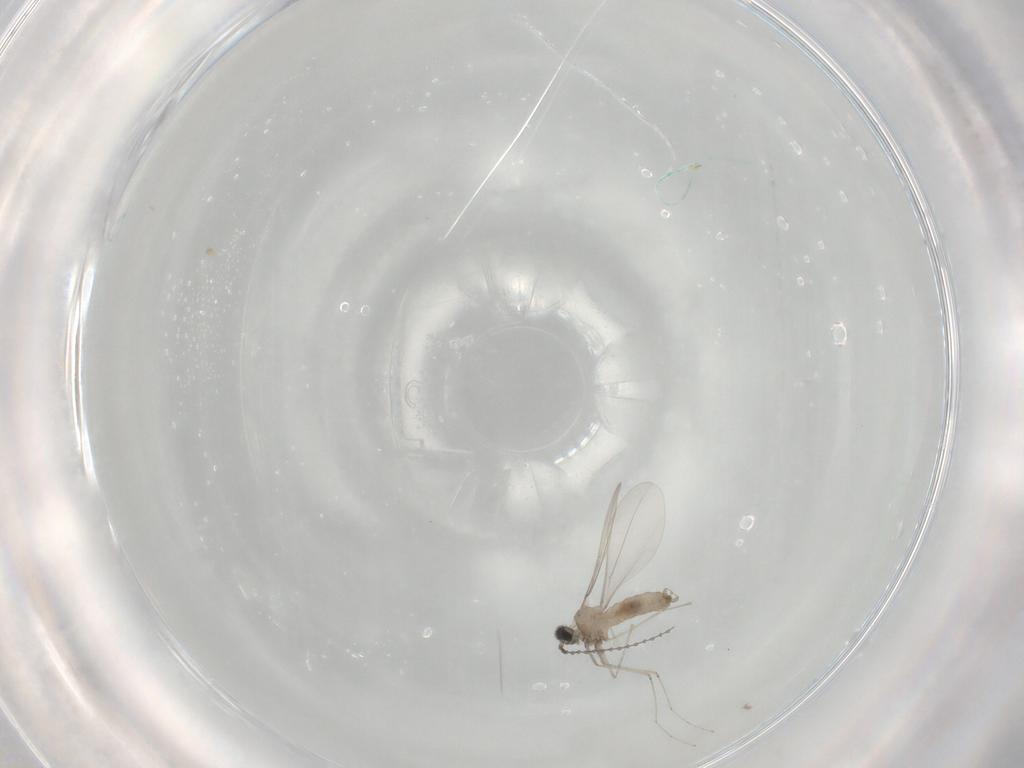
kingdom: Animalia
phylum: Arthropoda
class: Insecta
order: Diptera
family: Cecidomyiidae
